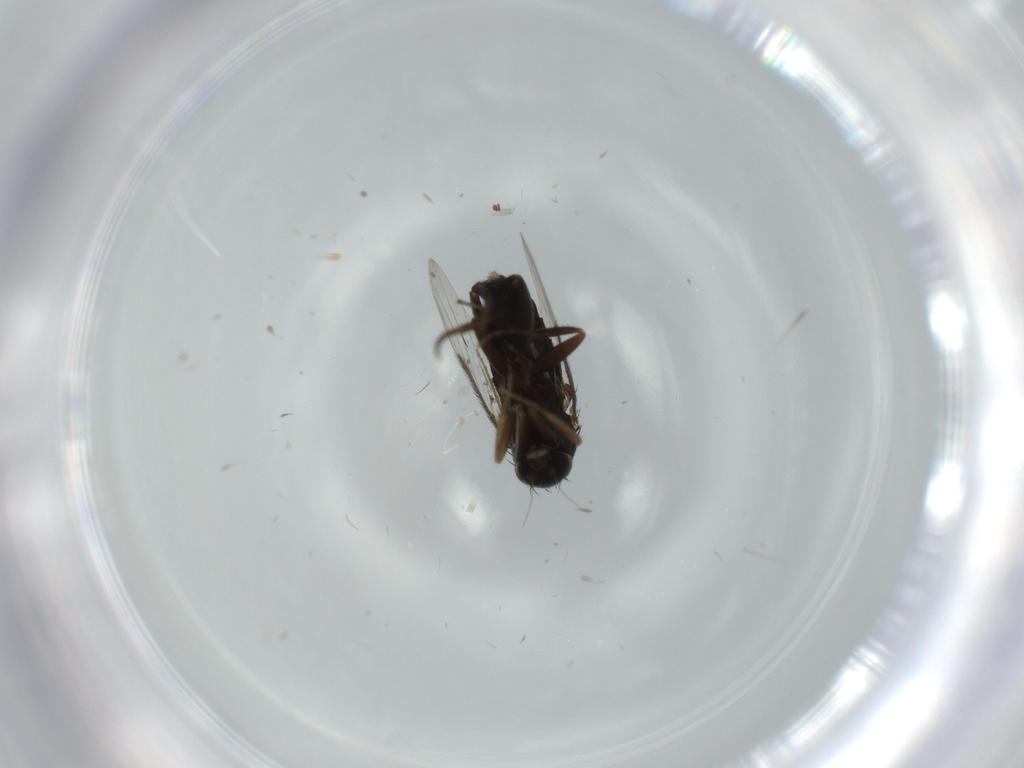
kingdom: Animalia
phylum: Arthropoda
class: Insecta
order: Diptera
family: Phoridae
